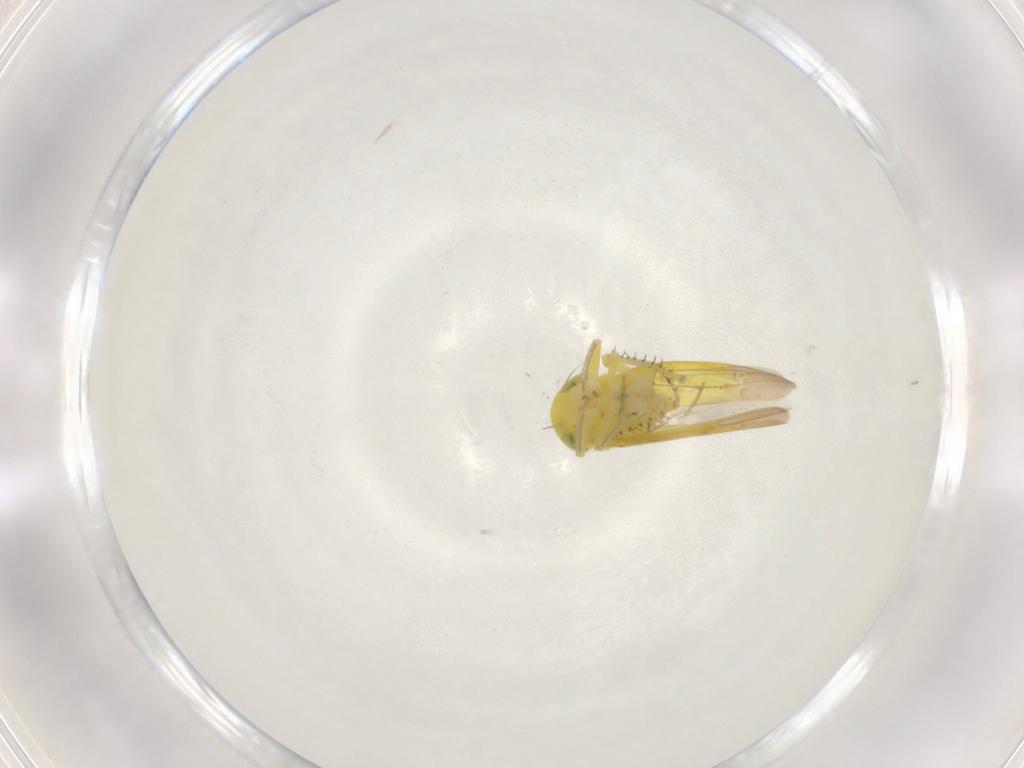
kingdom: Animalia
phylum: Arthropoda
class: Insecta
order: Hemiptera
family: Cicadellidae
